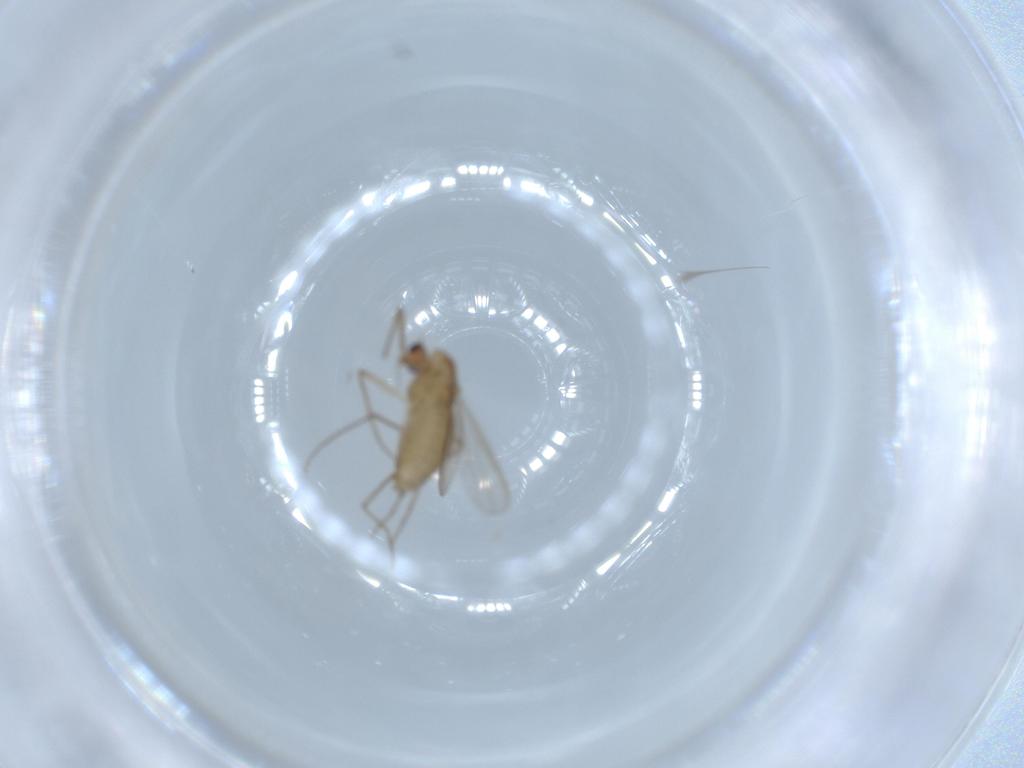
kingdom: Animalia
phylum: Arthropoda
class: Insecta
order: Diptera
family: Chironomidae
